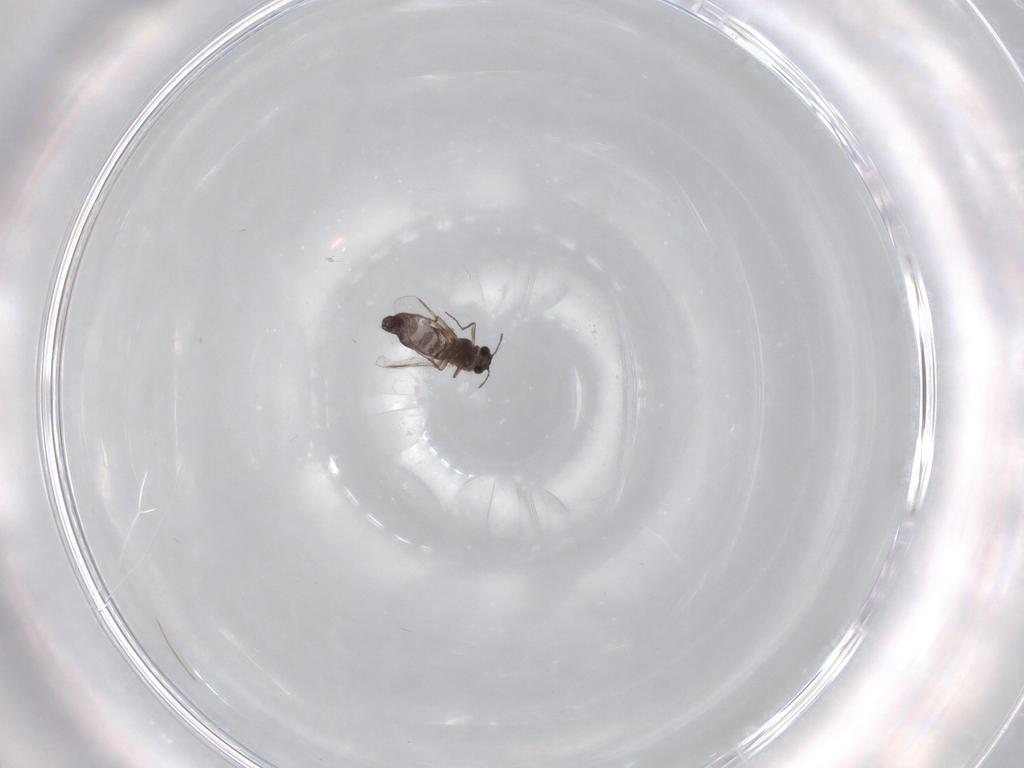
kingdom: Animalia
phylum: Arthropoda
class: Insecta
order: Diptera
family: Chironomidae
